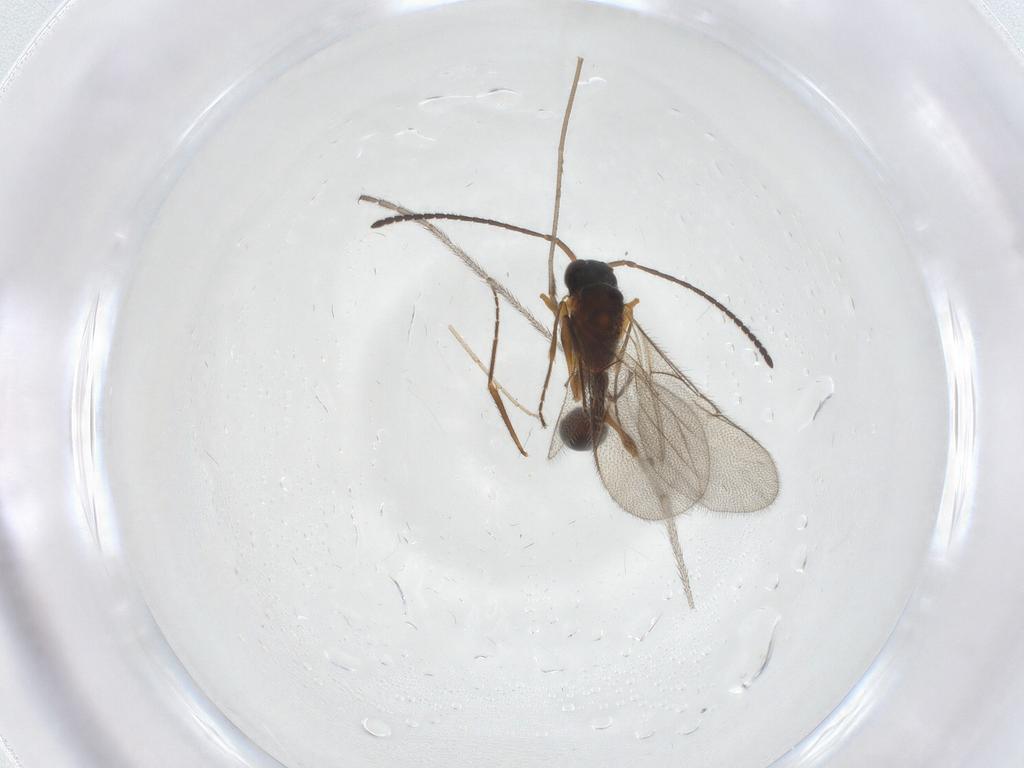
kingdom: Animalia
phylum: Arthropoda
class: Insecta
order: Hymenoptera
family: Diapriidae
